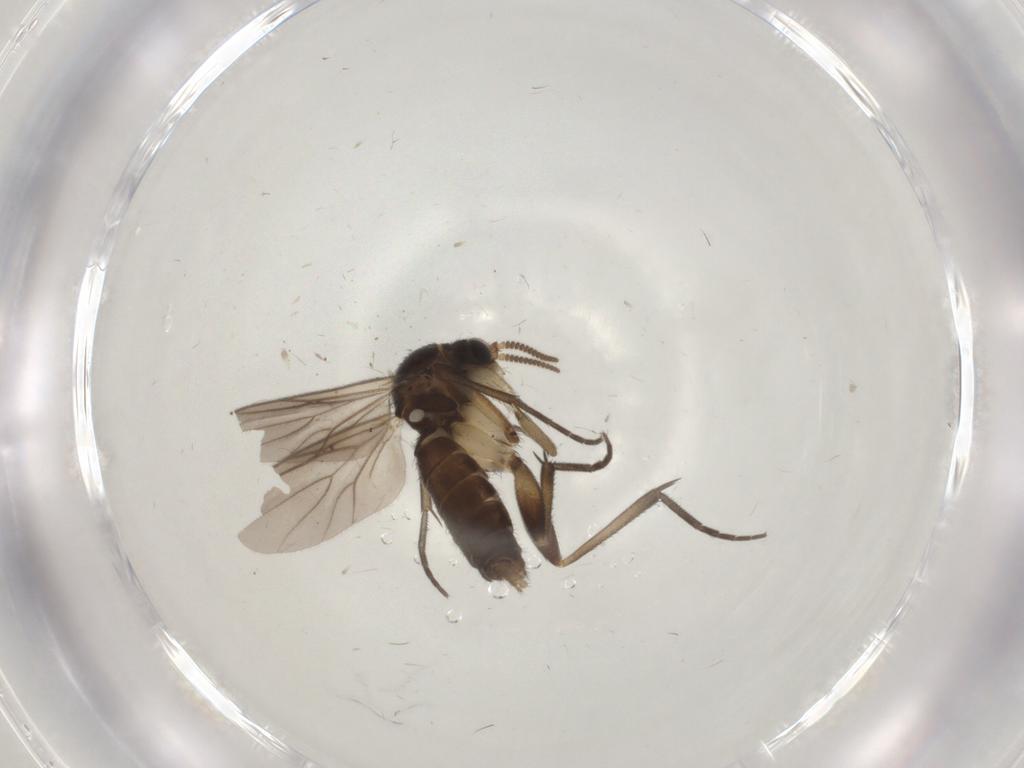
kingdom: Animalia
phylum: Arthropoda
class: Insecta
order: Diptera
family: Mycetophilidae
